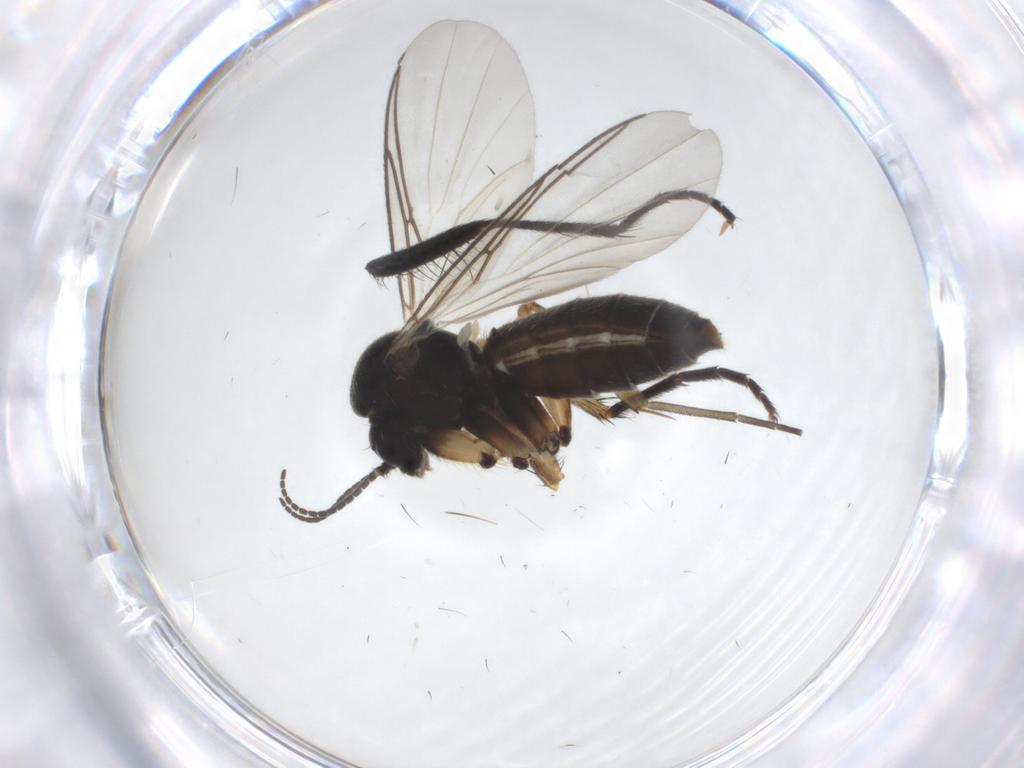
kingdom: Animalia
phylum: Arthropoda
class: Insecta
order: Diptera
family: Mycetophilidae
